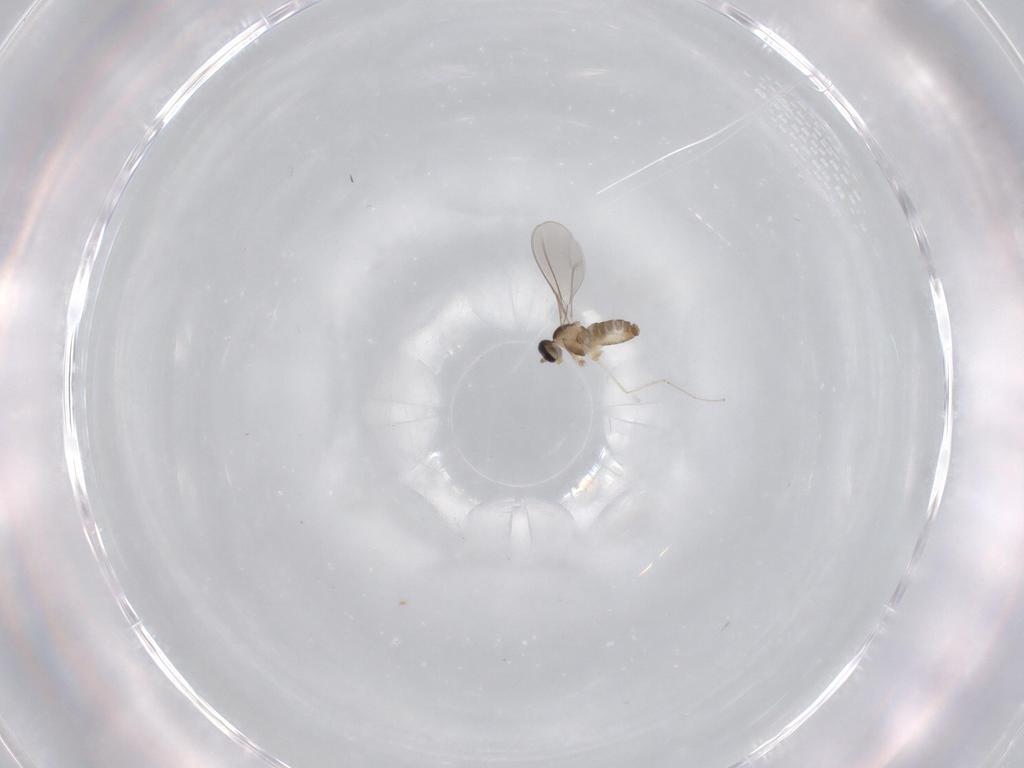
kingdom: Animalia
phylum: Arthropoda
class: Insecta
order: Diptera
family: Cecidomyiidae
